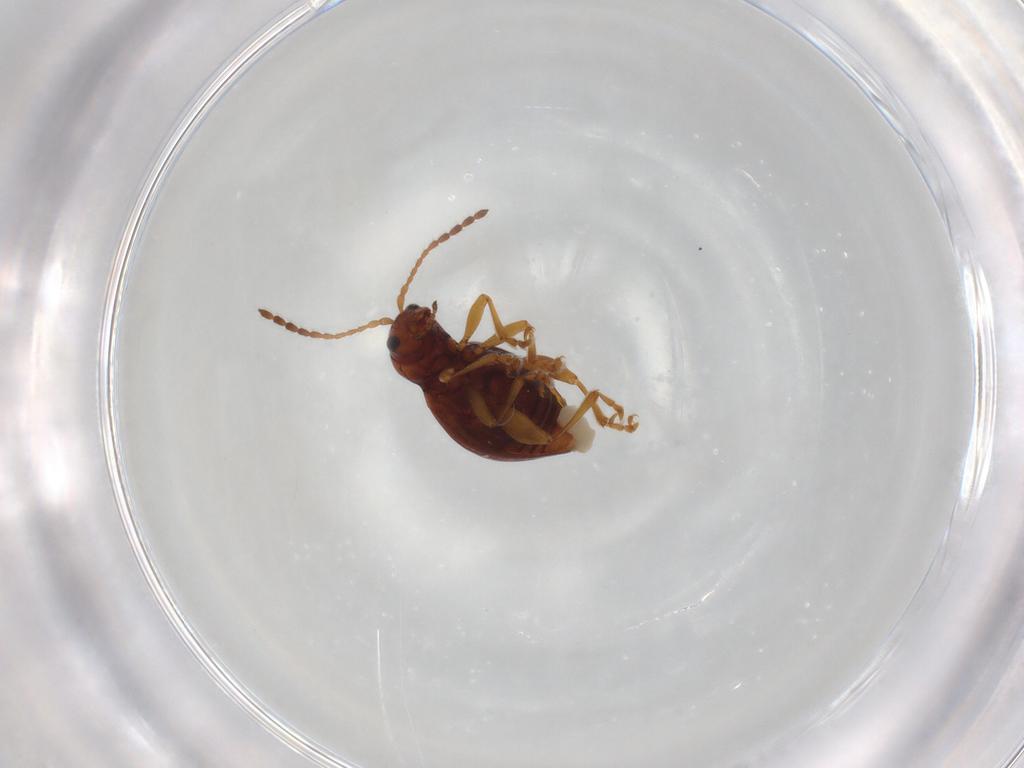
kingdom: Animalia
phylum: Arthropoda
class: Insecta
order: Coleoptera
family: Chrysomelidae
